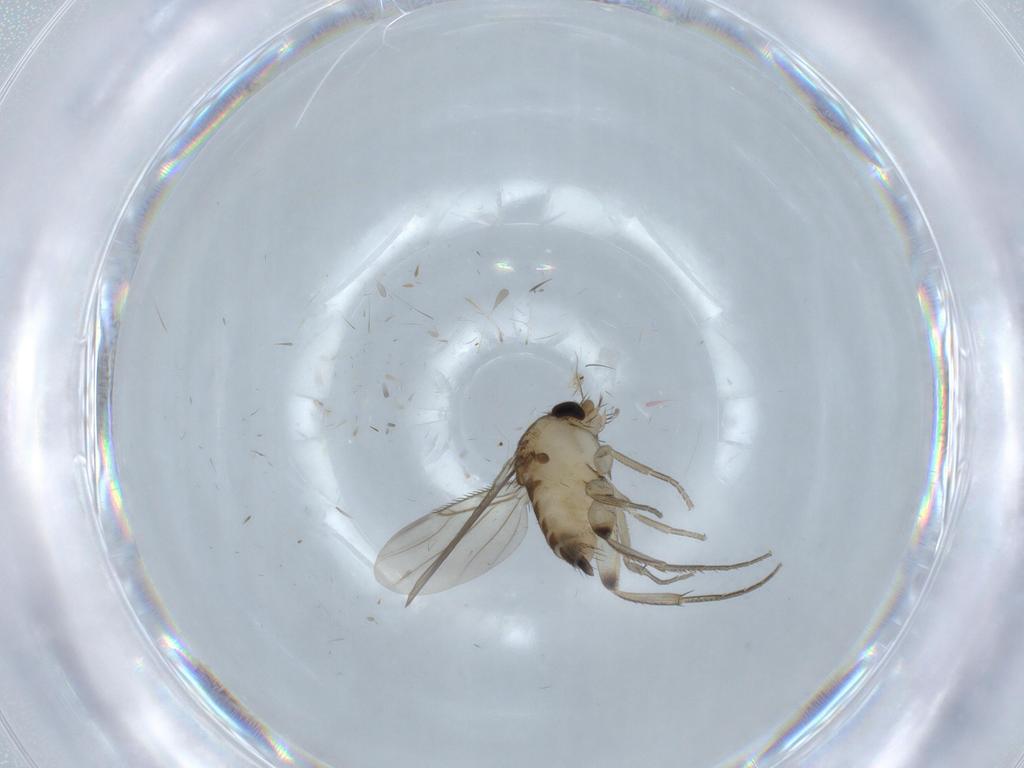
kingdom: Animalia
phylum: Arthropoda
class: Insecta
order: Diptera
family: Phoridae
